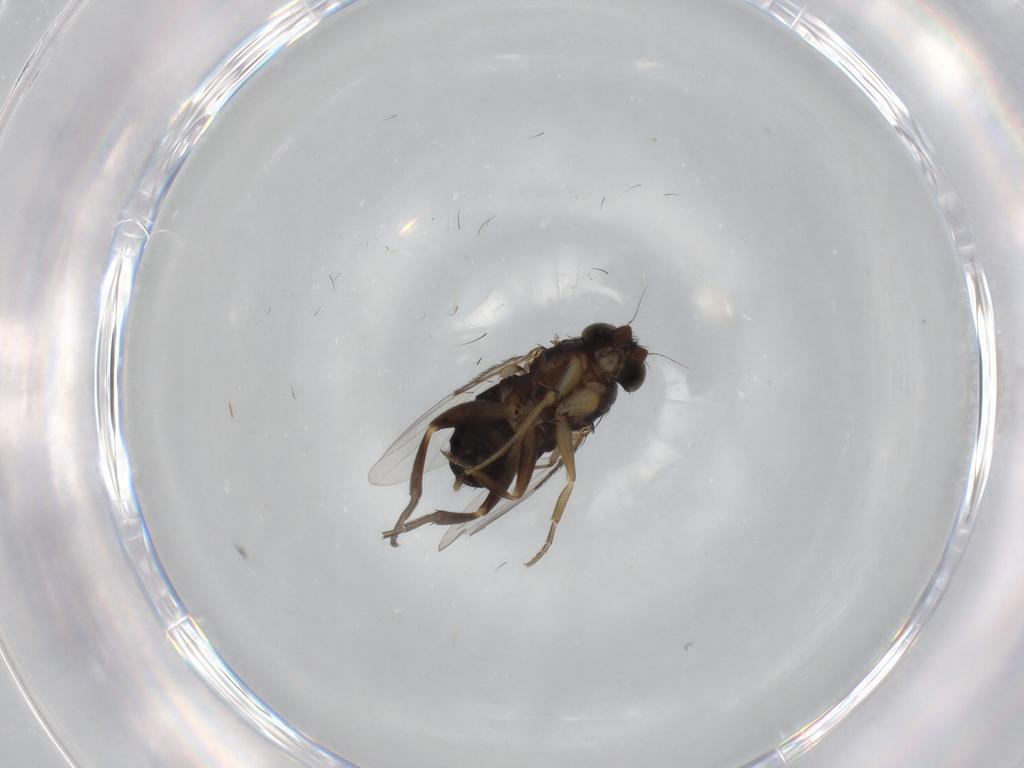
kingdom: Animalia
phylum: Arthropoda
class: Insecta
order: Diptera
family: Phoridae
